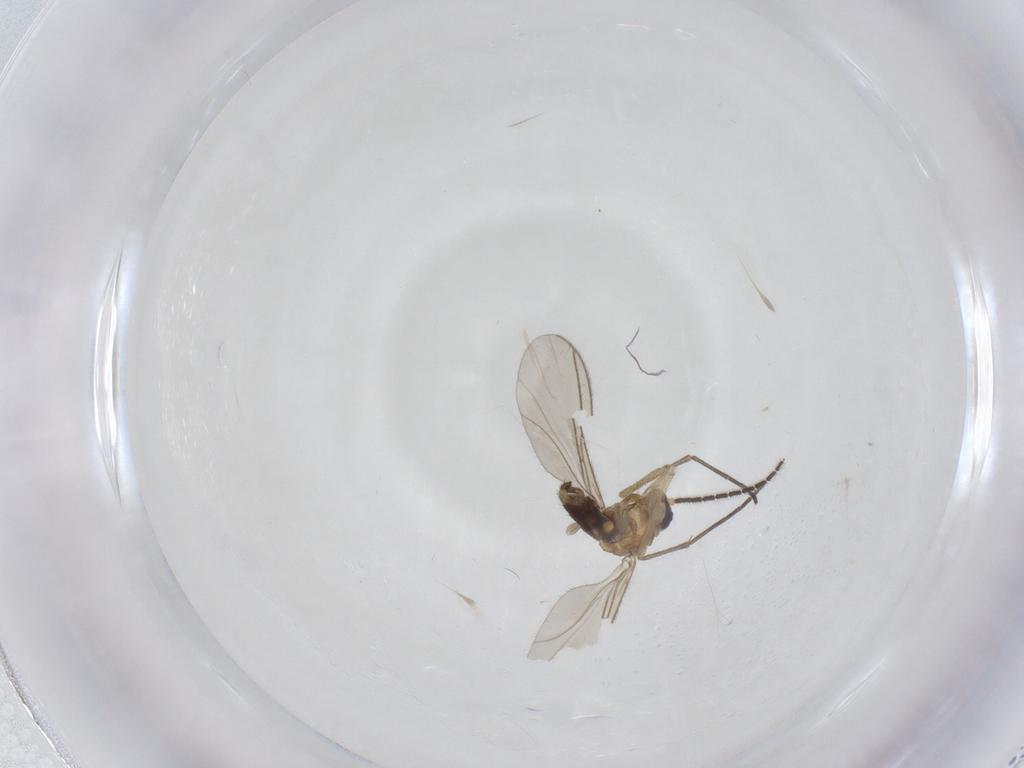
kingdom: Animalia
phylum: Arthropoda
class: Insecta
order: Diptera
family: Sciaridae
